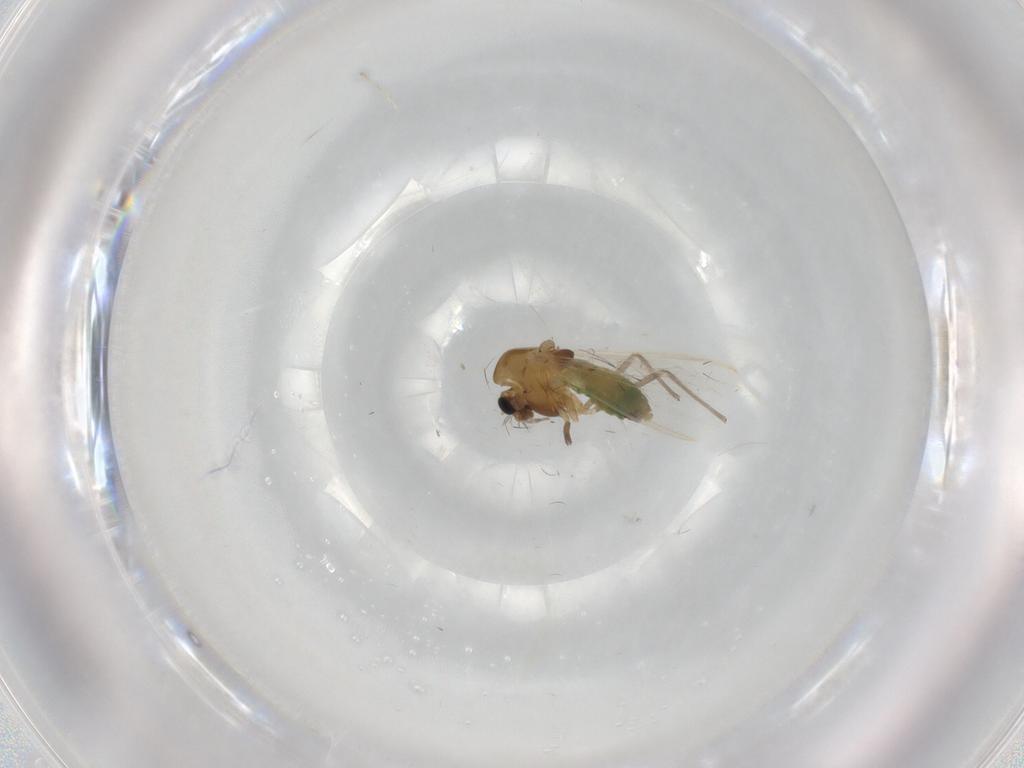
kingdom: Animalia
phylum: Arthropoda
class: Insecta
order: Diptera
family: Chironomidae
